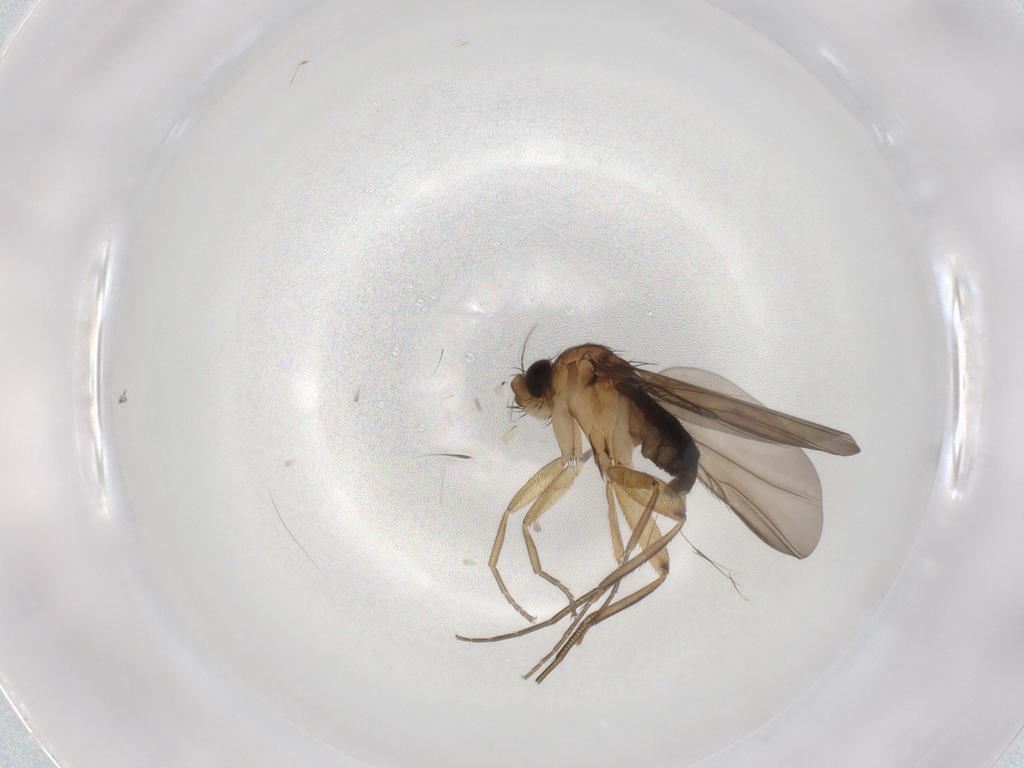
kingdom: Animalia
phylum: Arthropoda
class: Insecta
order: Diptera
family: Phoridae
